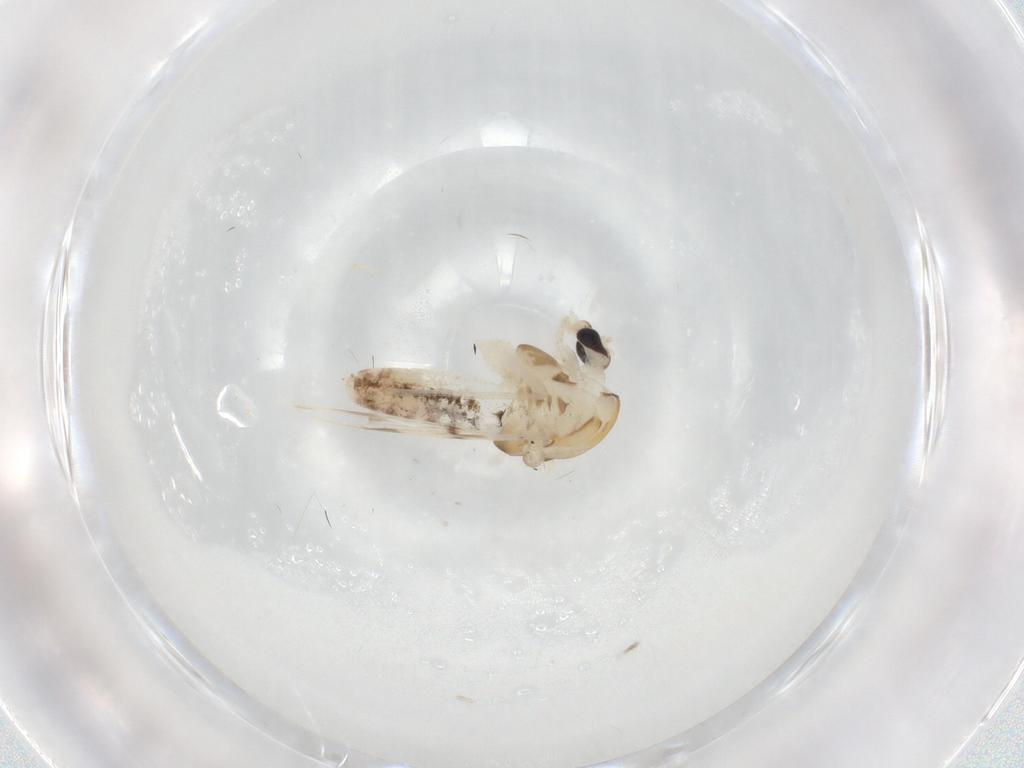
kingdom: Animalia
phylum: Arthropoda
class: Insecta
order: Diptera
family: Chironomidae
